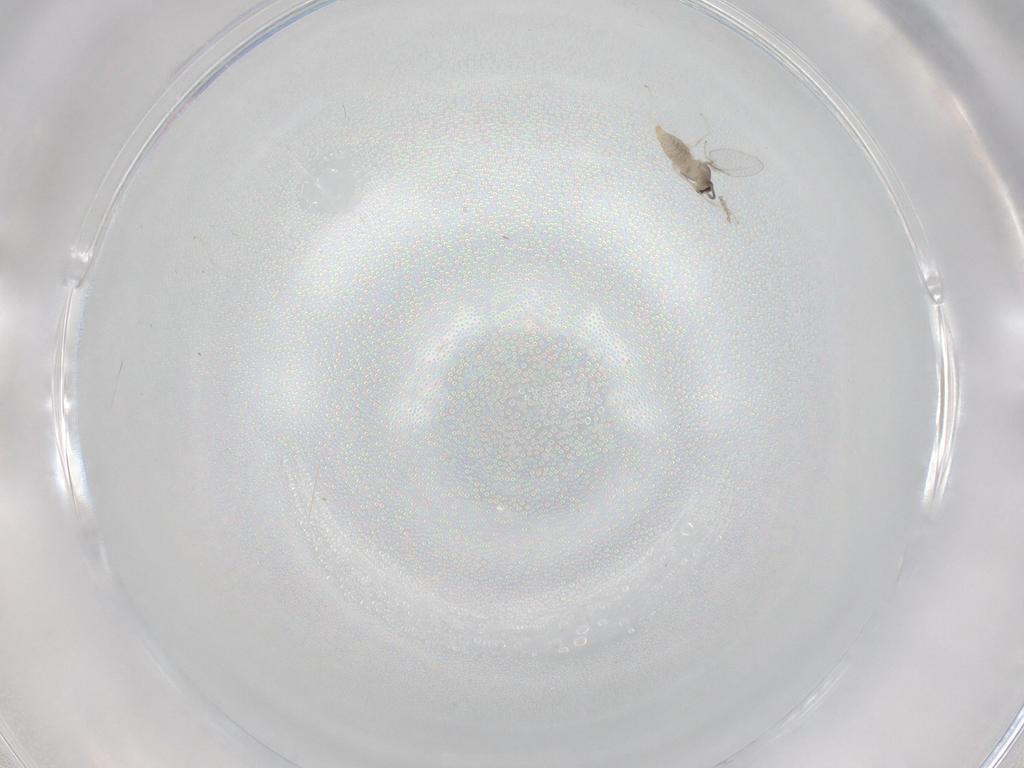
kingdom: Animalia
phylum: Arthropoda
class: Insecta
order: Diptera
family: Cecidomyiidae
